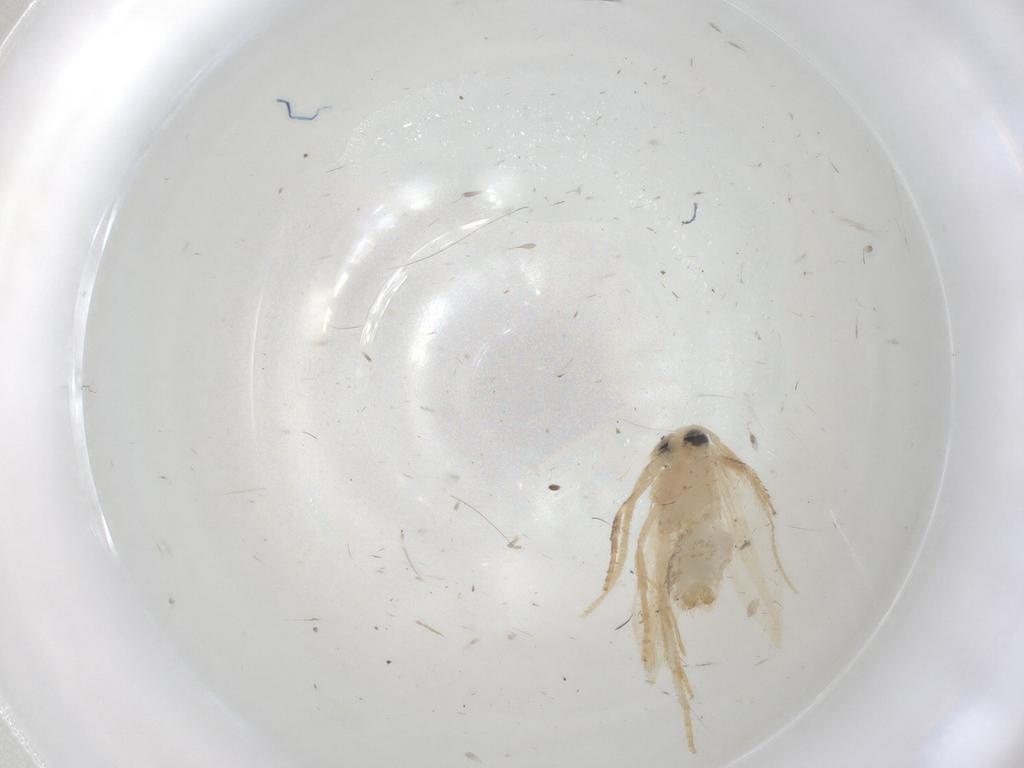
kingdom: Animalia
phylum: Arthropoda
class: Insecta
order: Lepidoptera
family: Opostegidae
